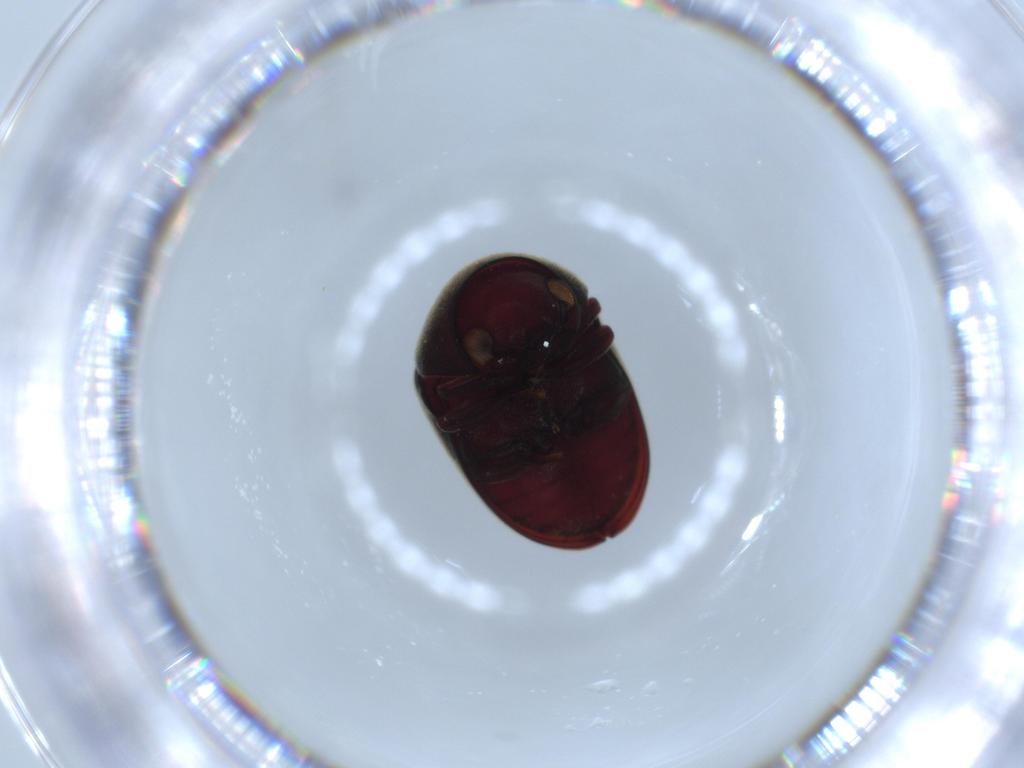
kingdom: Animalia
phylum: Arthropoda
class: Insecta
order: Coleoptera
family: Ptinidae
